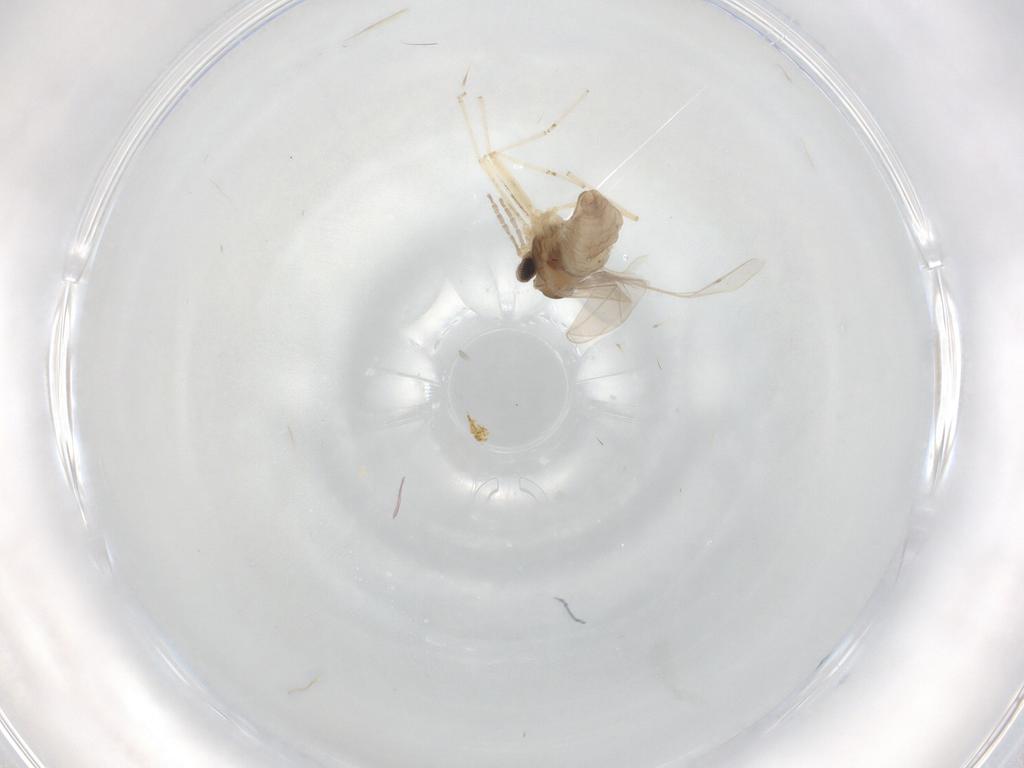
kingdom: Animalia
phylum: Arthropoda
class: Insecta
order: Diptera
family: Cecidomyiidae
